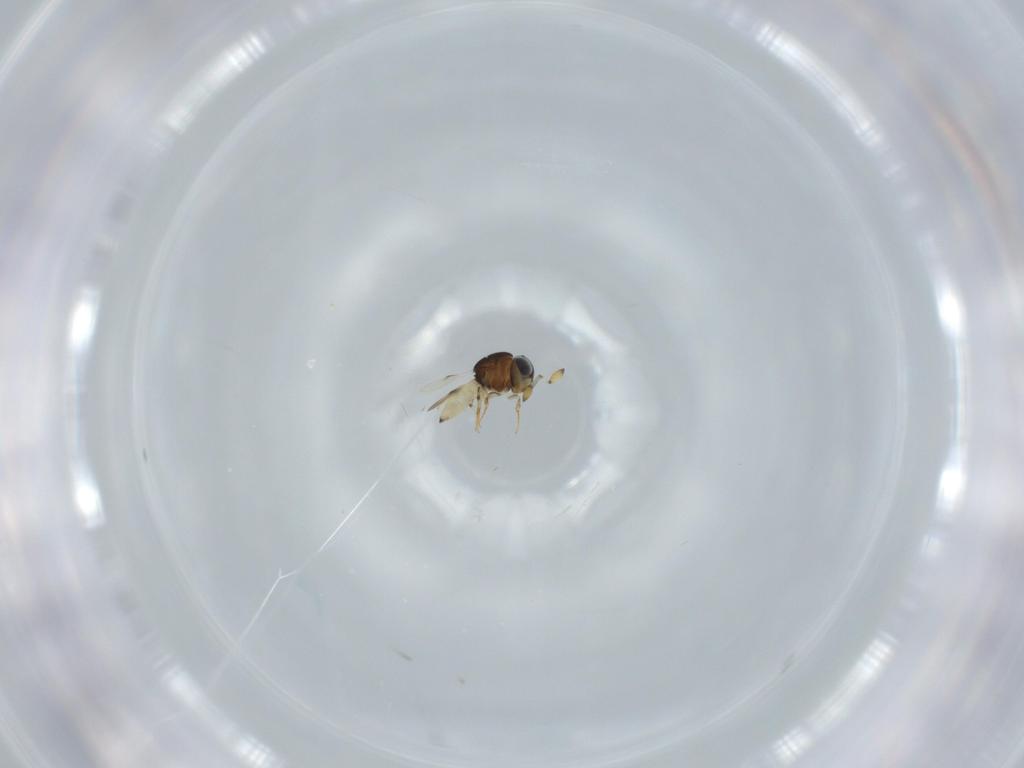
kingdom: Animalia
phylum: Arthropoda
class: Insecta
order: Hymenoptera
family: Scelionidae
